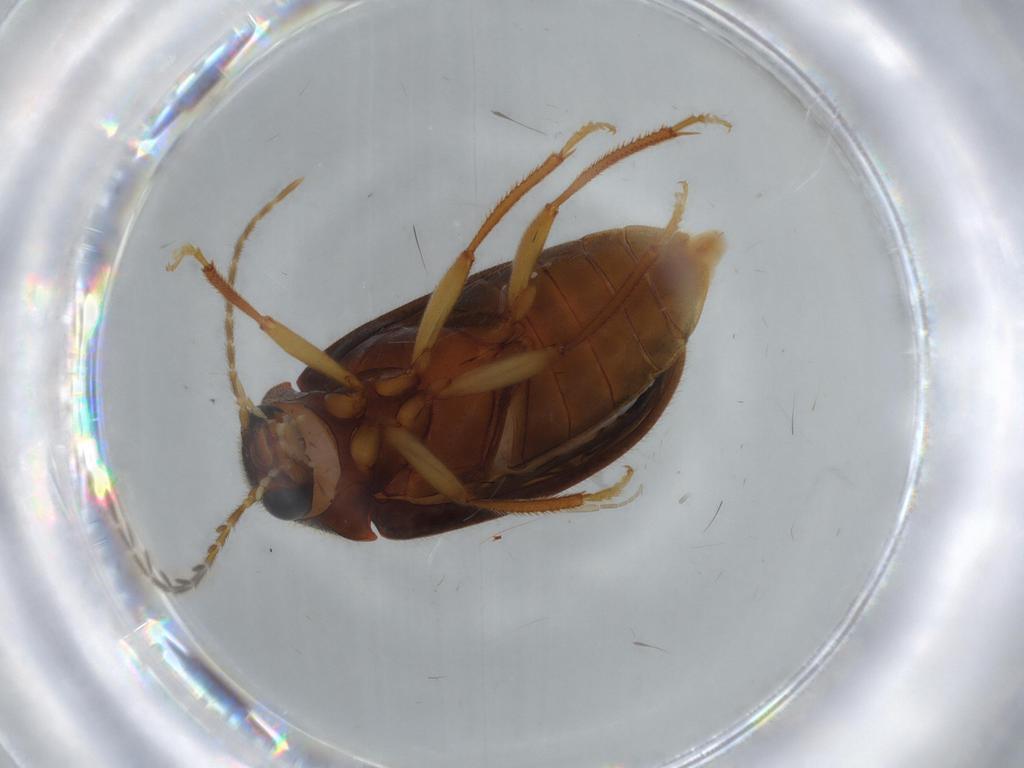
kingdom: Animalia
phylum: Arthropoda
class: Insecta
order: Coleoptera
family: Ptilodactylidae
